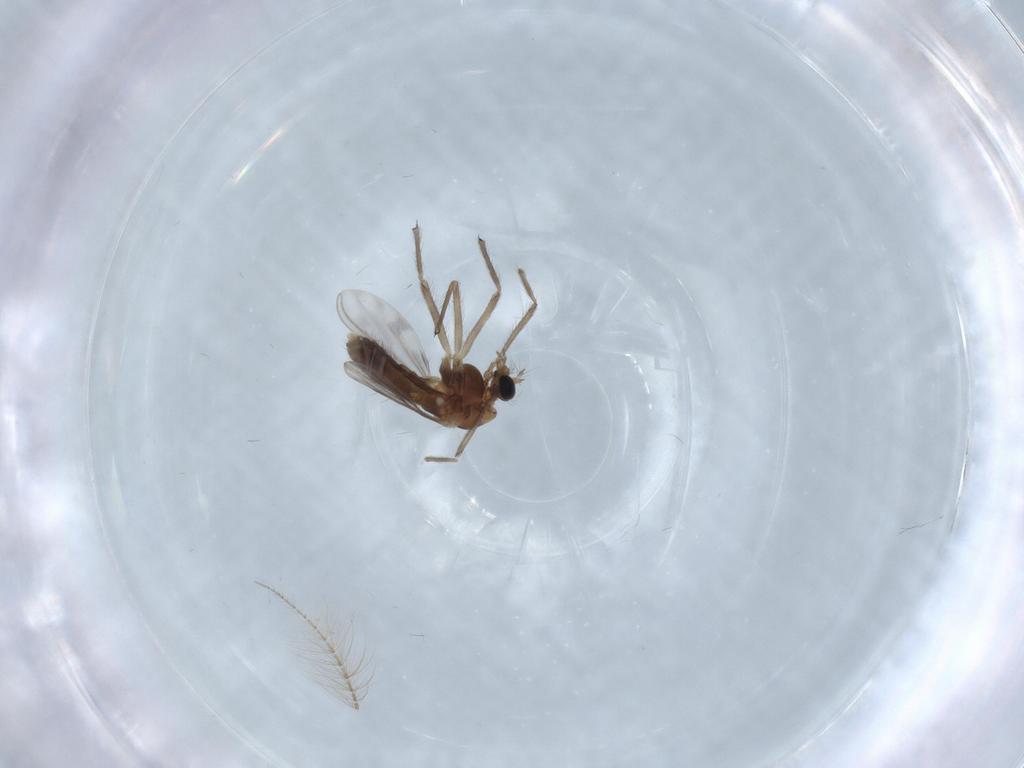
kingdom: Animalia
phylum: Arthropoda
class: Insecta
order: Diptera
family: Chironomidae
